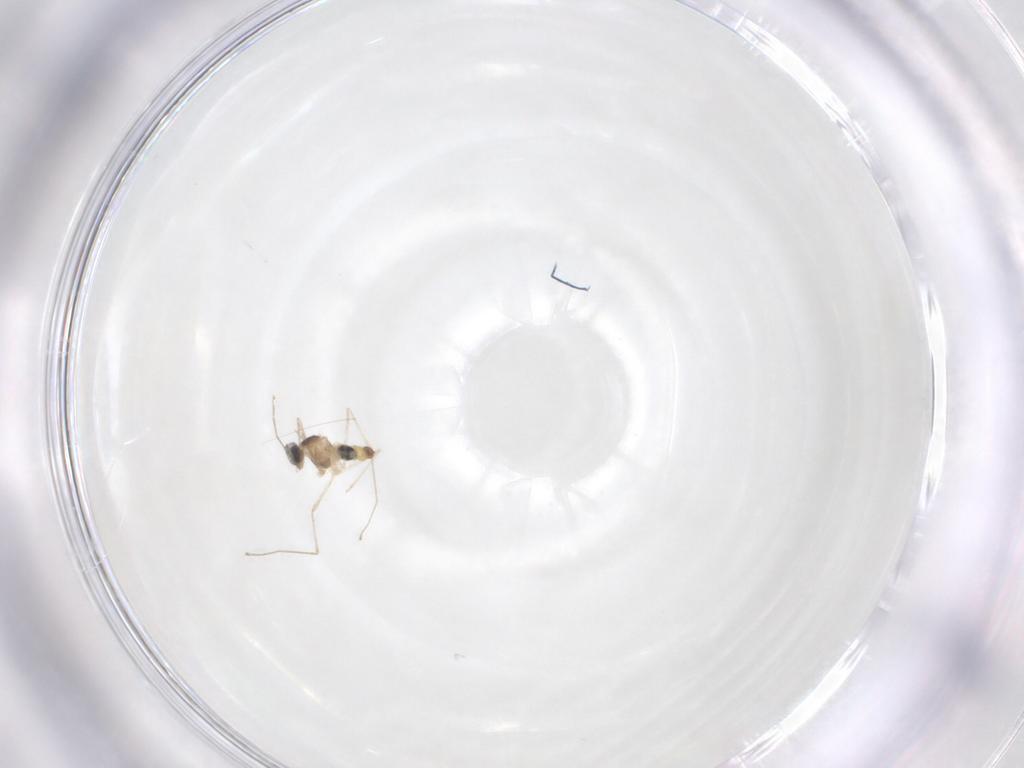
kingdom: Animalia
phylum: Arthropoda
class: Insecta
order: Diptera
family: Cecidomyiidae
